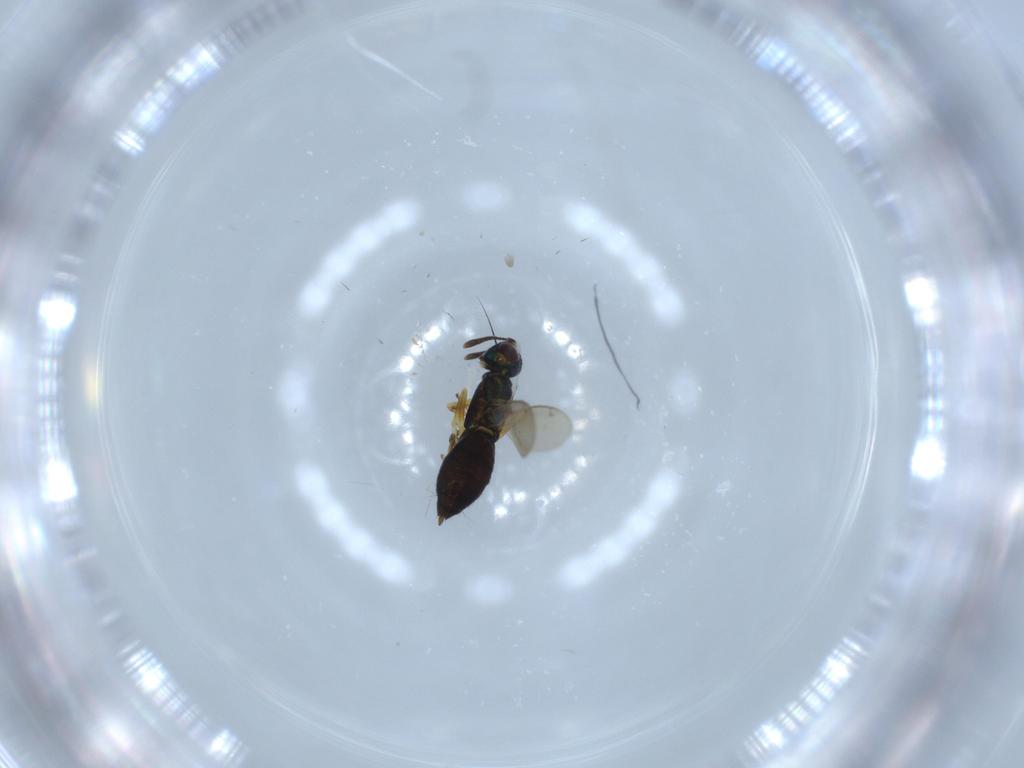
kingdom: Animalia
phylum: Arthropoda
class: Insecta
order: Hymenoptera
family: Eupelmidae
